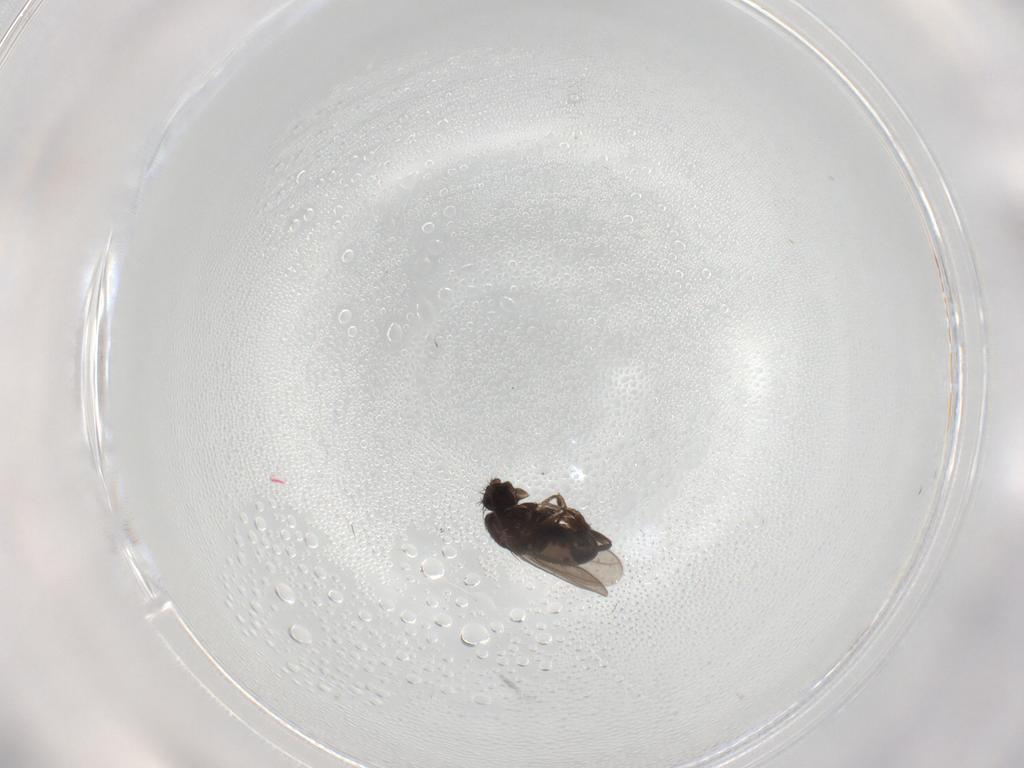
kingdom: Animalia
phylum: Arthropoda
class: Insecta
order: Diptera
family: Sphaeroceridae
